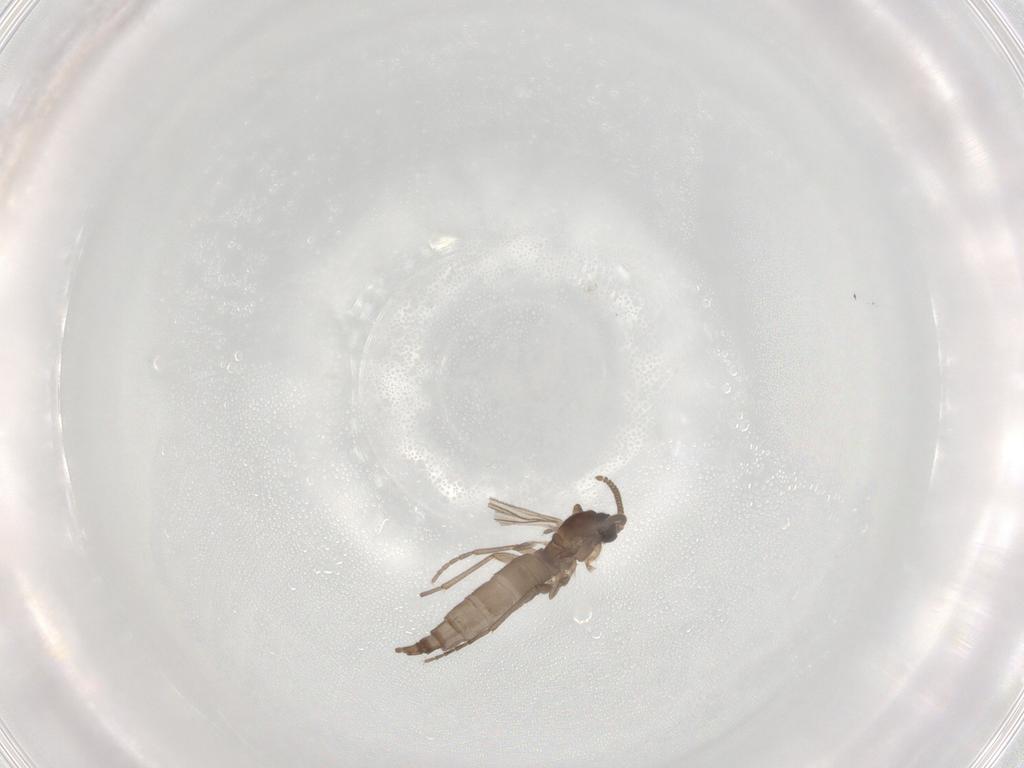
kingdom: Animalia
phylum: Arthropoda
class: Insecta
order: Diptera
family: Sciaridae
